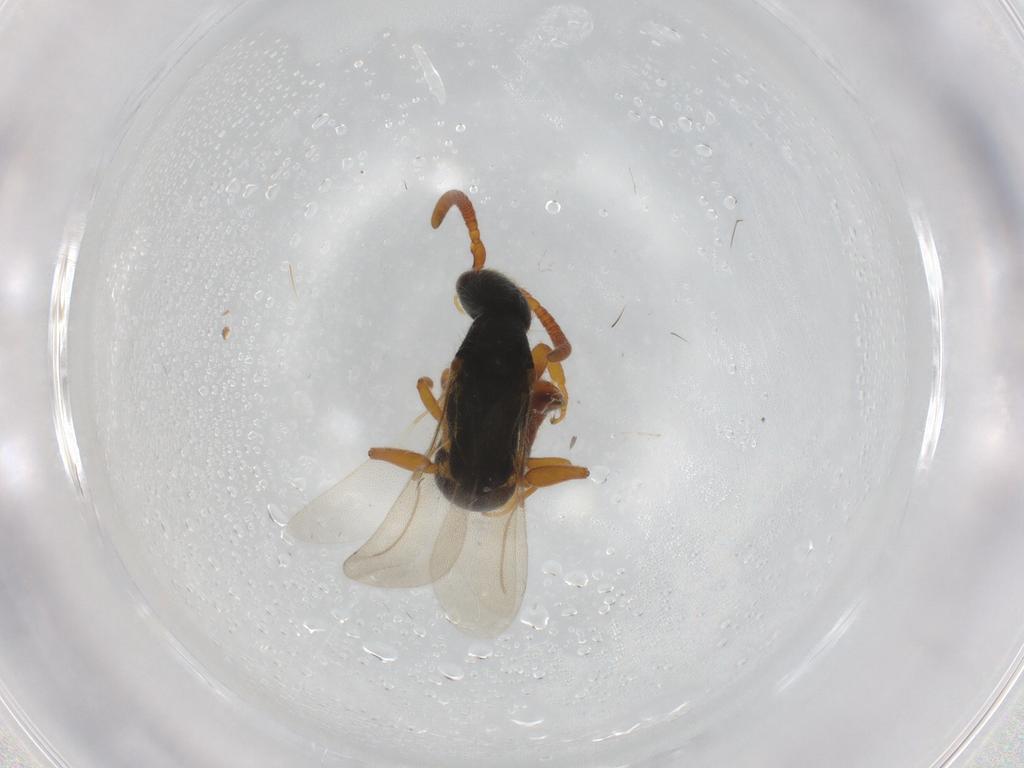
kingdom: Animalia
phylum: Arthropoda
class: Insecta
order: Hymenoptera
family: Bethylidae
